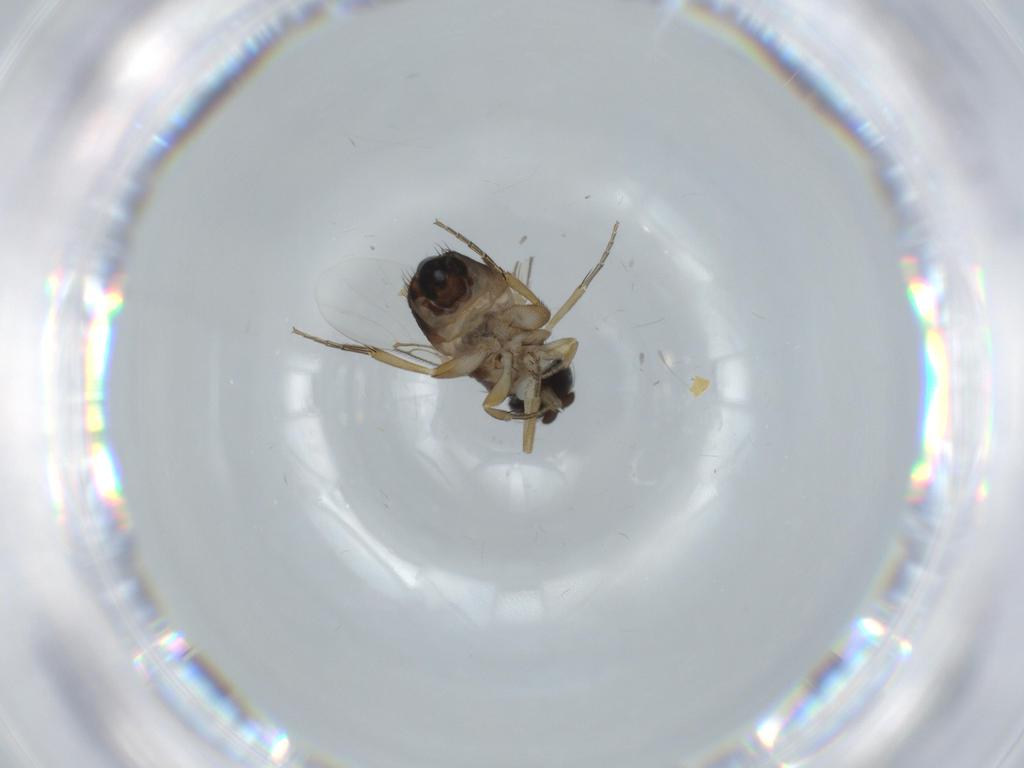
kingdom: Animalia
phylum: Arthropoda
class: Insecta
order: Diptera
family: Phoridae
